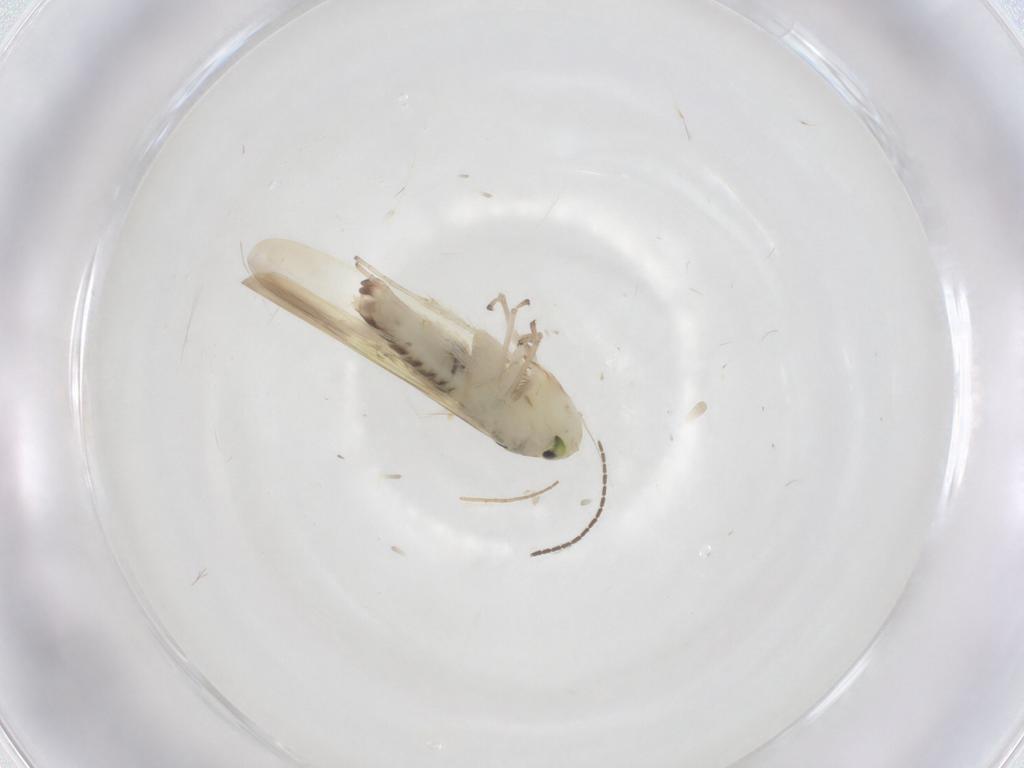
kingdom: Animalia
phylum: Arthropoda
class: Insecta
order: Hemiptera
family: Cicadellidae
